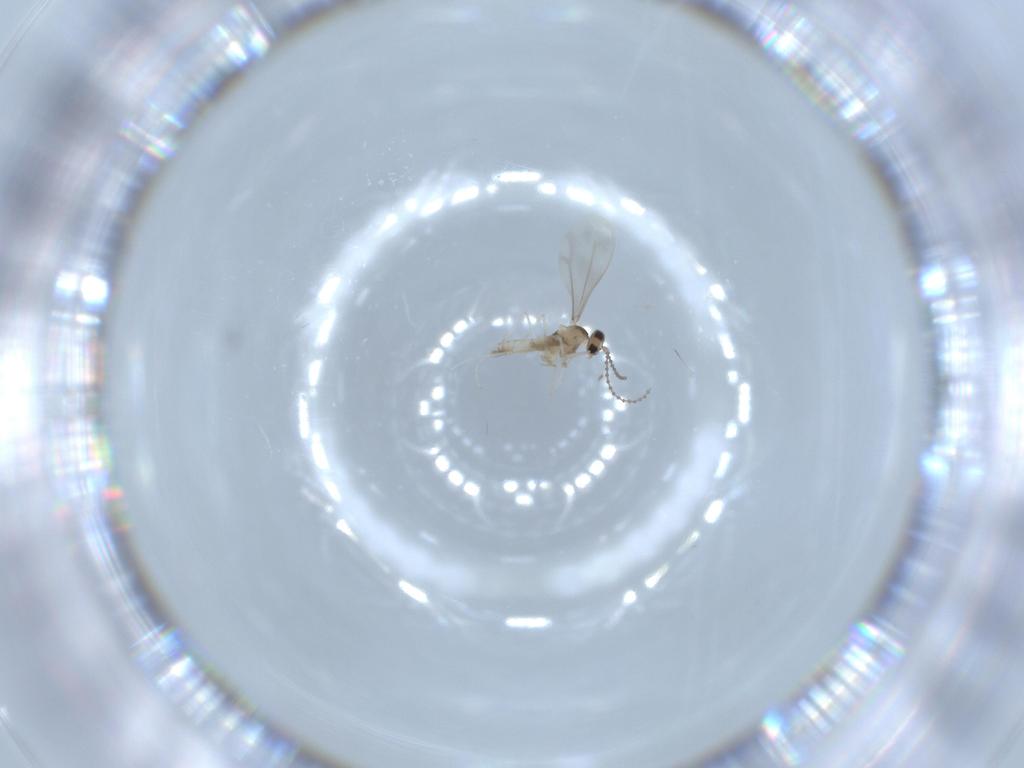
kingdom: Animalia
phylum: Arthropoda
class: Insecta
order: Diptera
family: Cecidomyiidae
